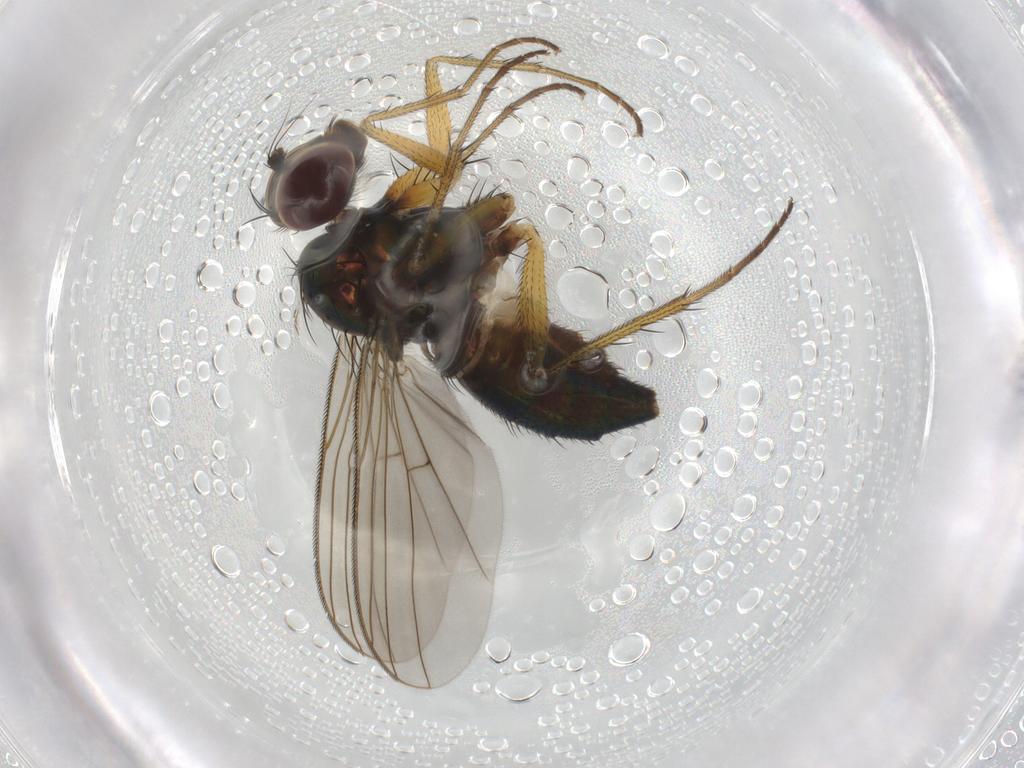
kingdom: Animalia
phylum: Arthropoda
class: Insecta
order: Diptera
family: Dolichopodidae
